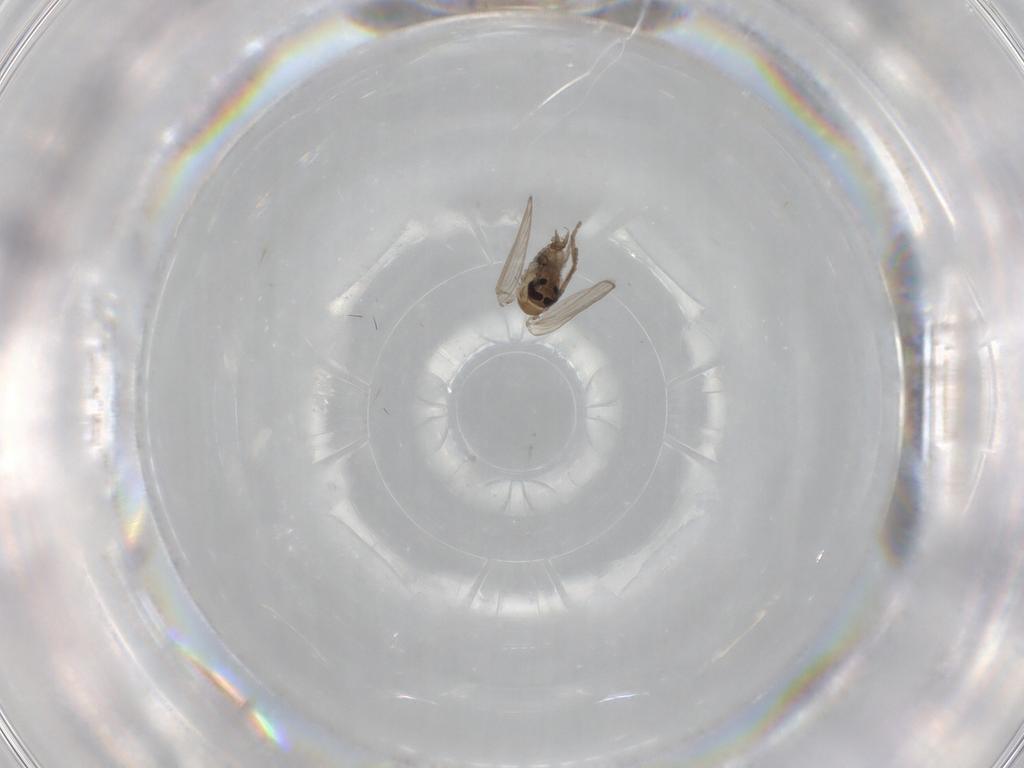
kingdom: Animalia
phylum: Arthropoda
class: Insecta
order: Diptera
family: Psychodidae
